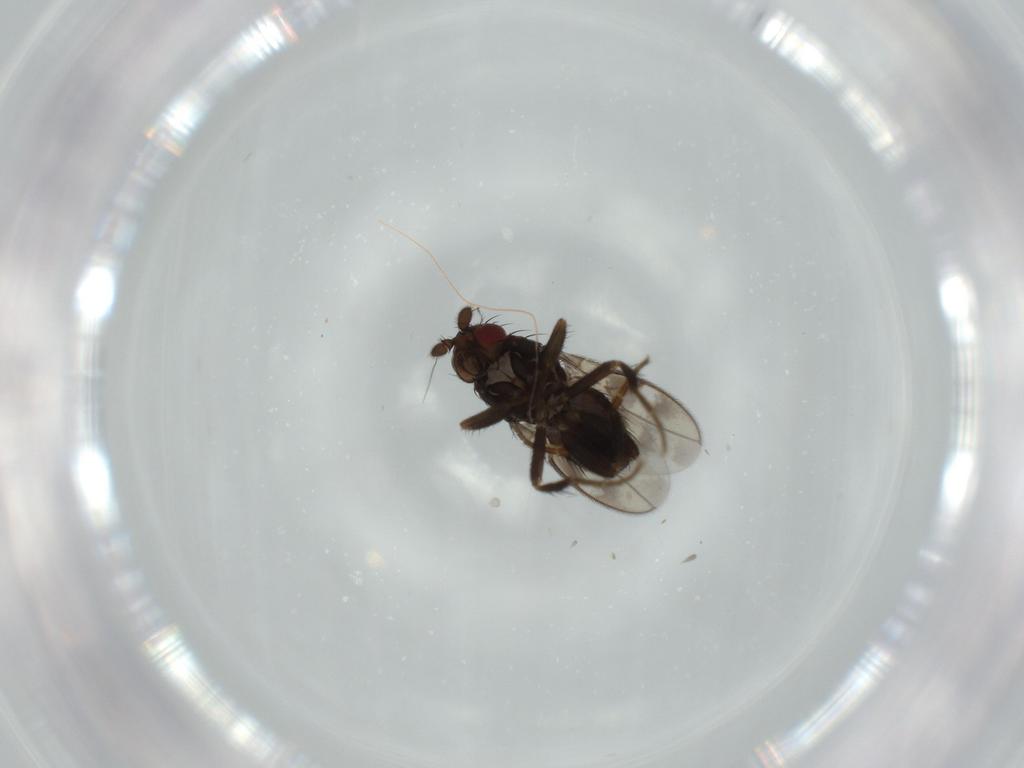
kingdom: Animalia
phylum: Arthropoda
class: Insecta
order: Diptera
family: Sphaeroceridae
